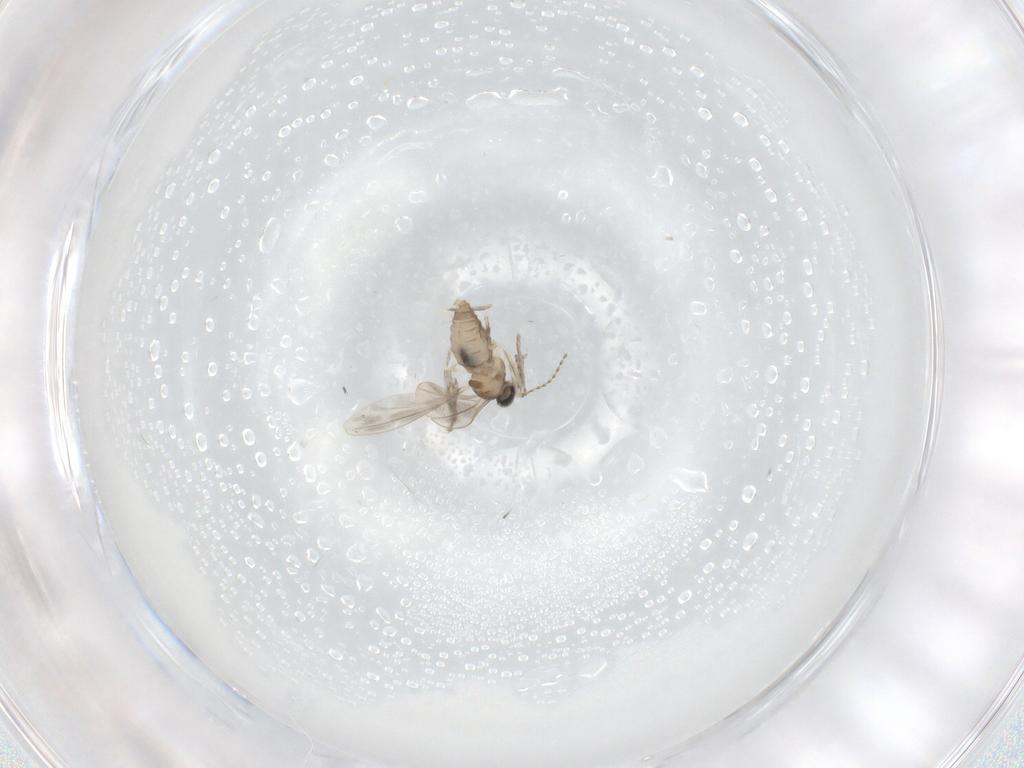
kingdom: Animalia
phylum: Arthropoda
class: Insecta
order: Diptera
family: Cecidomyiidae
